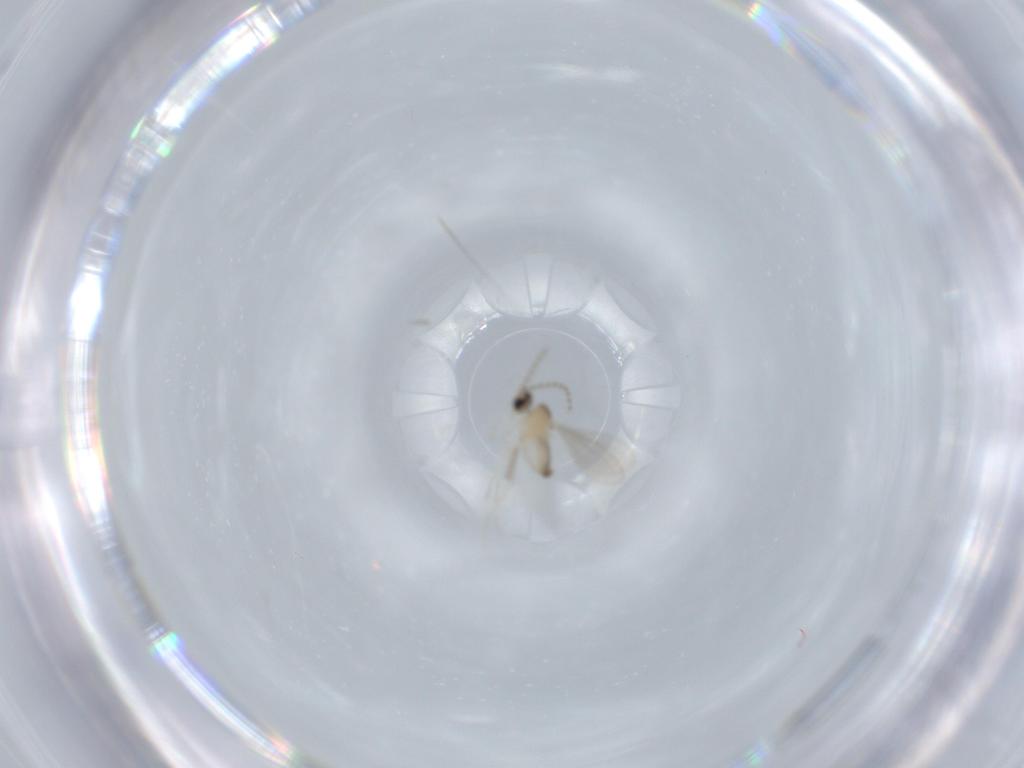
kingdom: Animalia
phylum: Arthropoda
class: Insecta
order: Diptera
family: Cecidomyiidae
